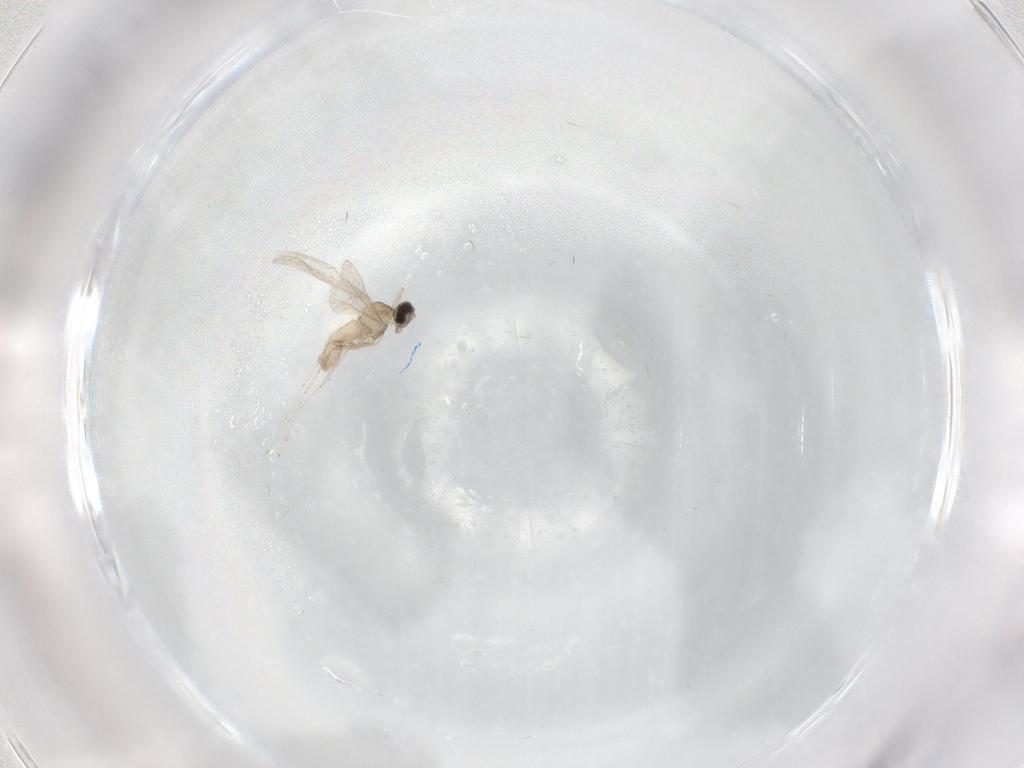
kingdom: Animalia
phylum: Arthropoda
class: Insecta
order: Diptera
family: Cecidomyiidae
